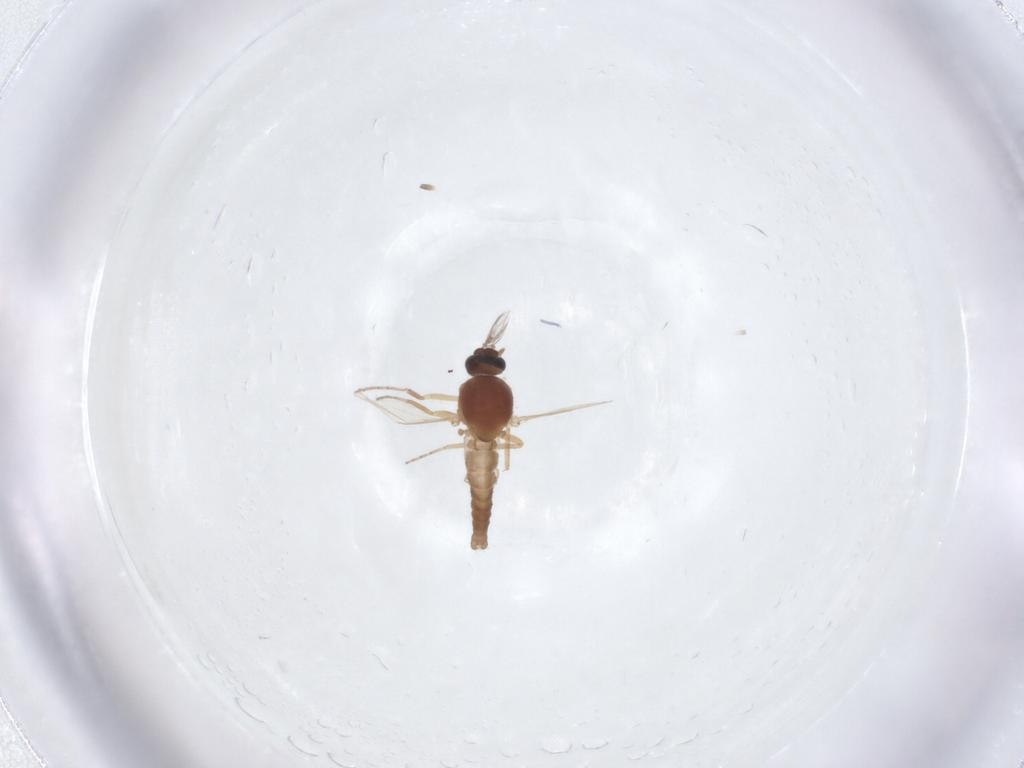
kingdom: Animalia
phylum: Arthropoda
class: Insecta
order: Diptera
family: Ceratopogonidae
